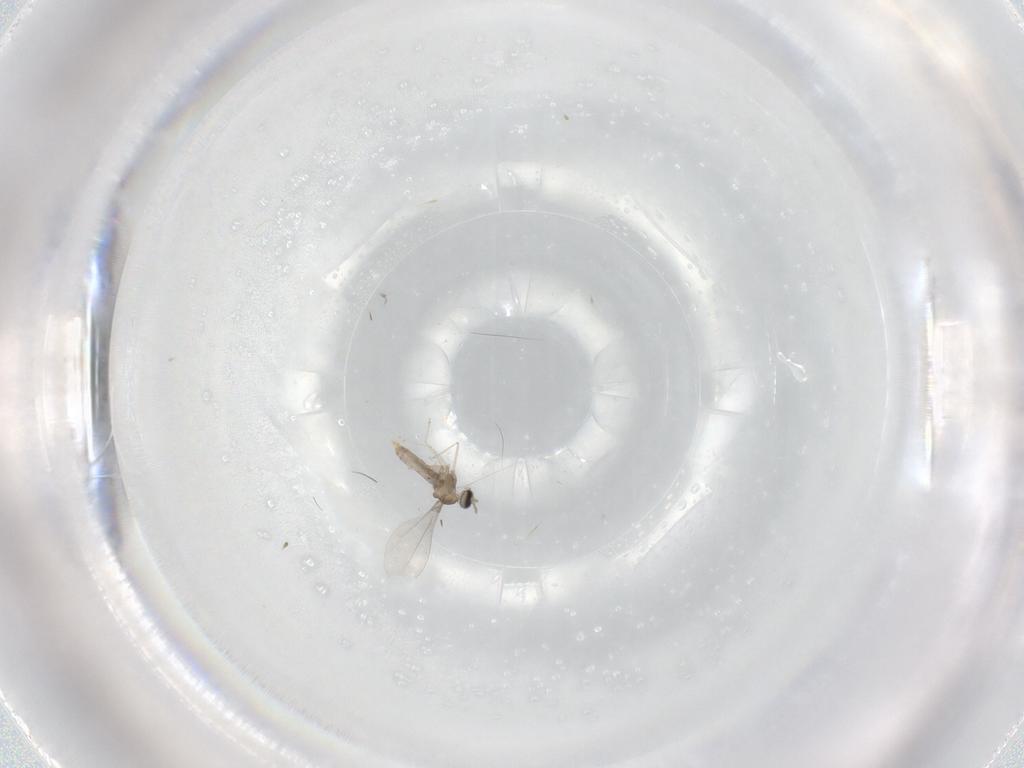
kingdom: Animalia
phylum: Arthropoda
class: Insecta
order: Diptera
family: Cecidomyiidae
